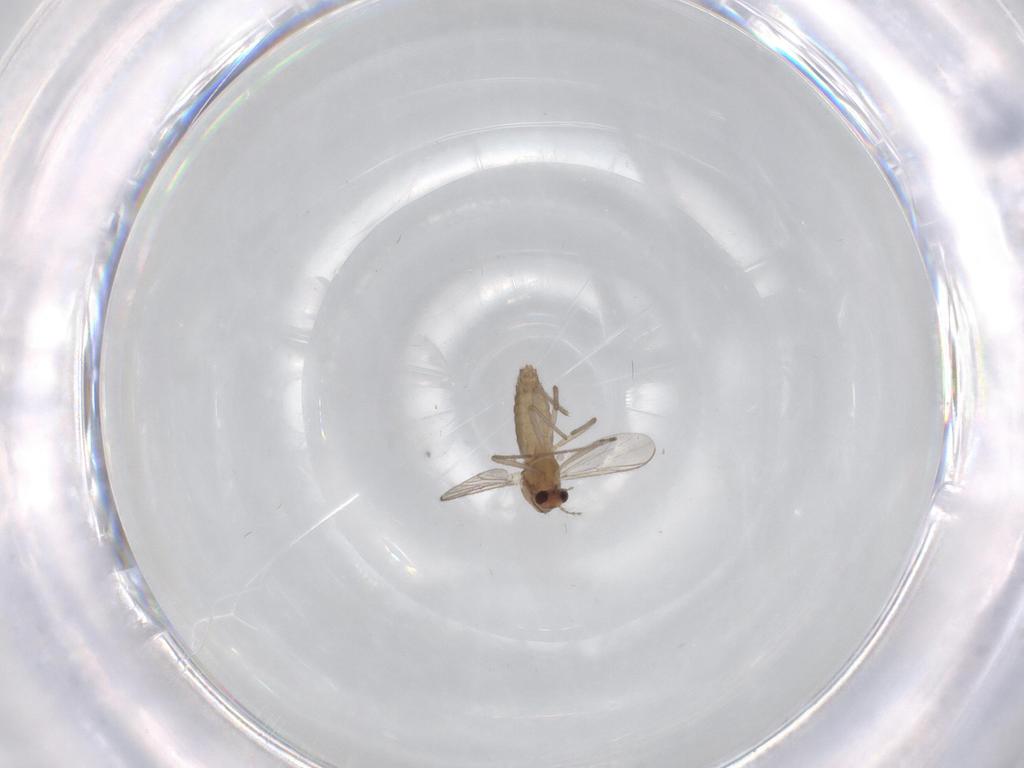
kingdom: Animalia
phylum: Arthropoda
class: Insecta
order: Diptera
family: Chironomidae
